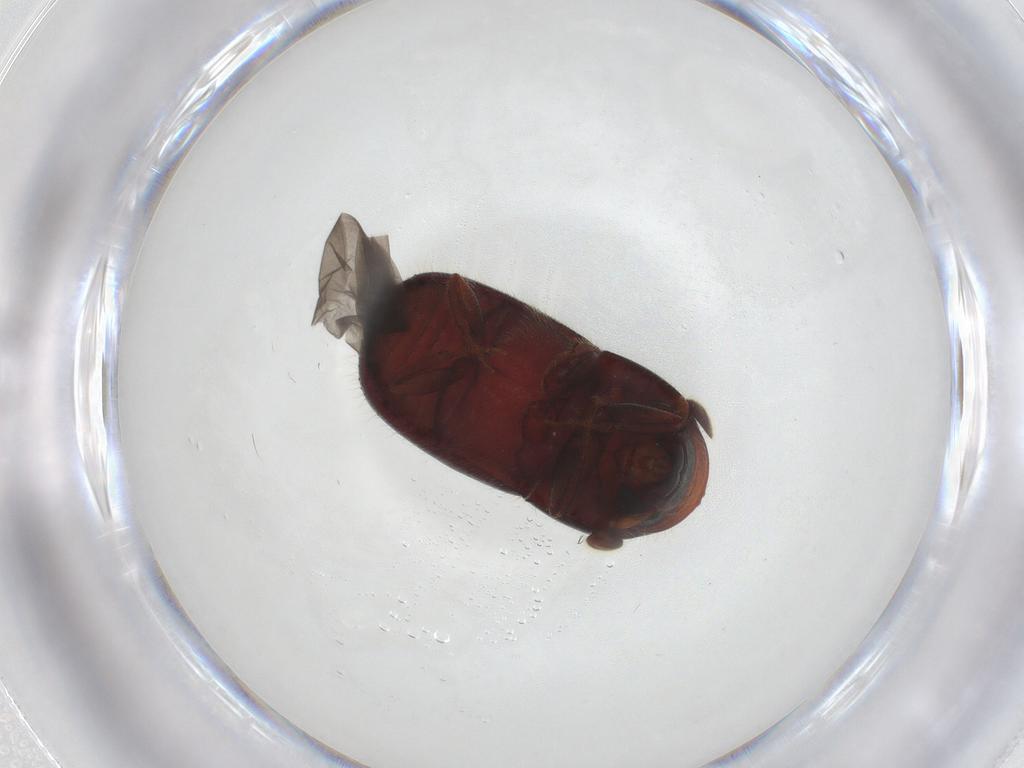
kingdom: Animalia
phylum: Arthropoda
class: Insecta
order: Coleoptera
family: Curculionidae
